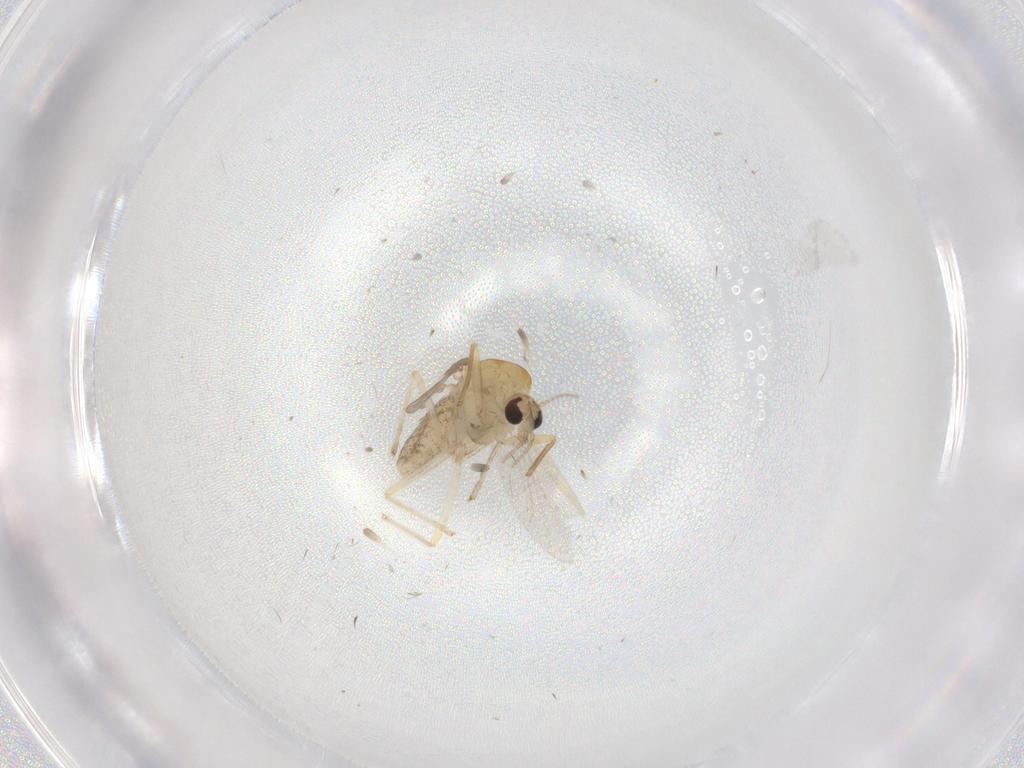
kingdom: Animalia
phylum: Arthropoda
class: Insecta
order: Diptera
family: Chironomidae
